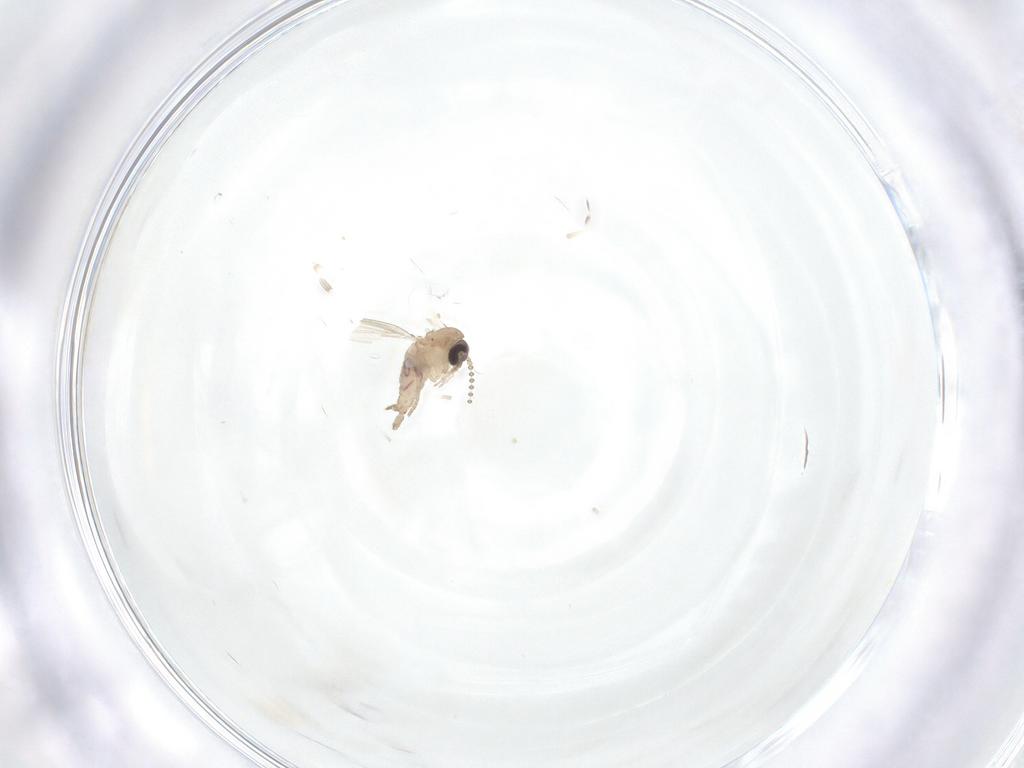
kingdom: Animalia
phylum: Arthropoda
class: Insecta
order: Diptera
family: Psychodidae
